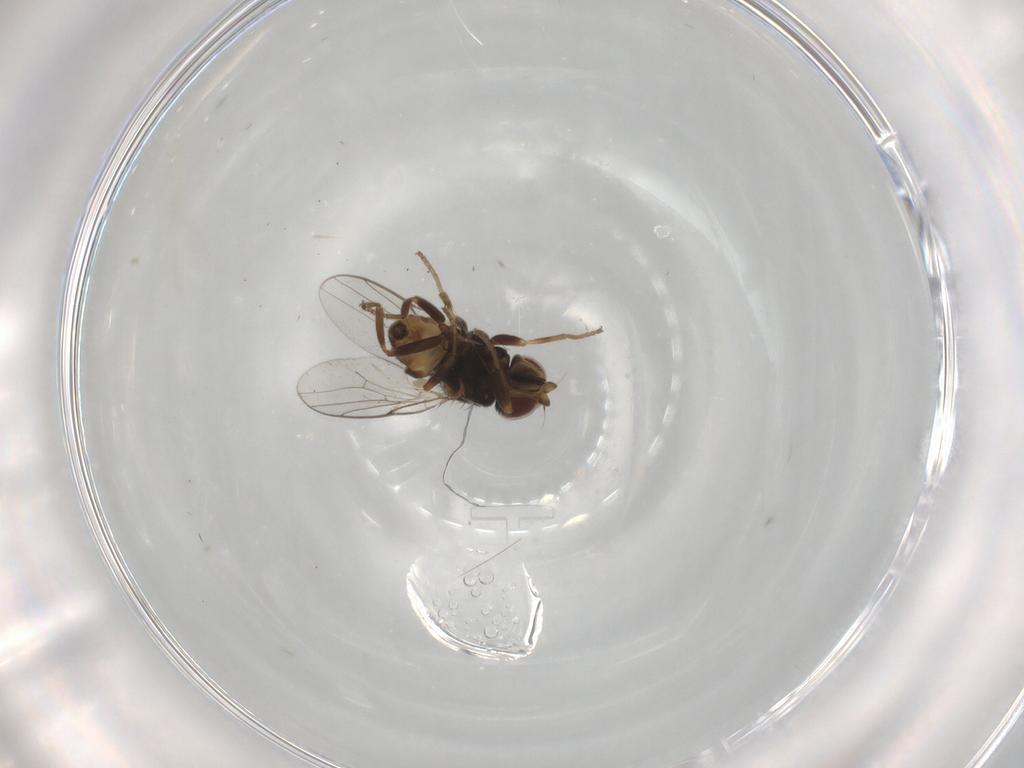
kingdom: Animalia
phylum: Arthropoda
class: Insecta
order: Diptera
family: Chloropidae
